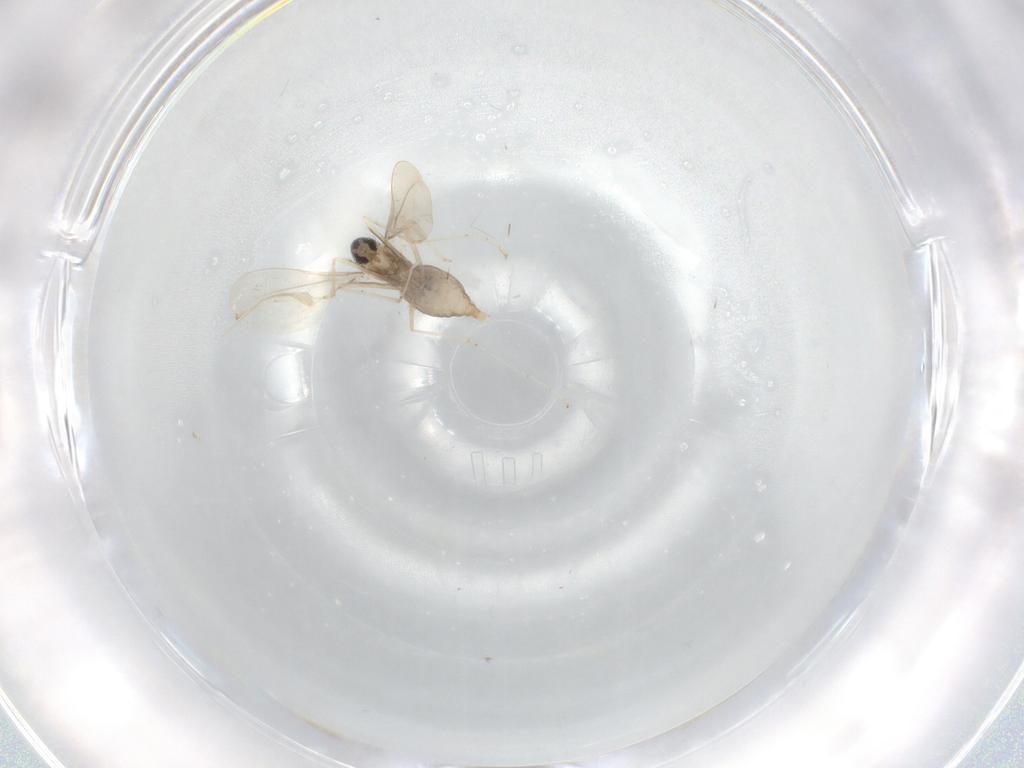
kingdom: Animalia
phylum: Arthropoda
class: Insecta
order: Diptera
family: Cecidomyiidae
